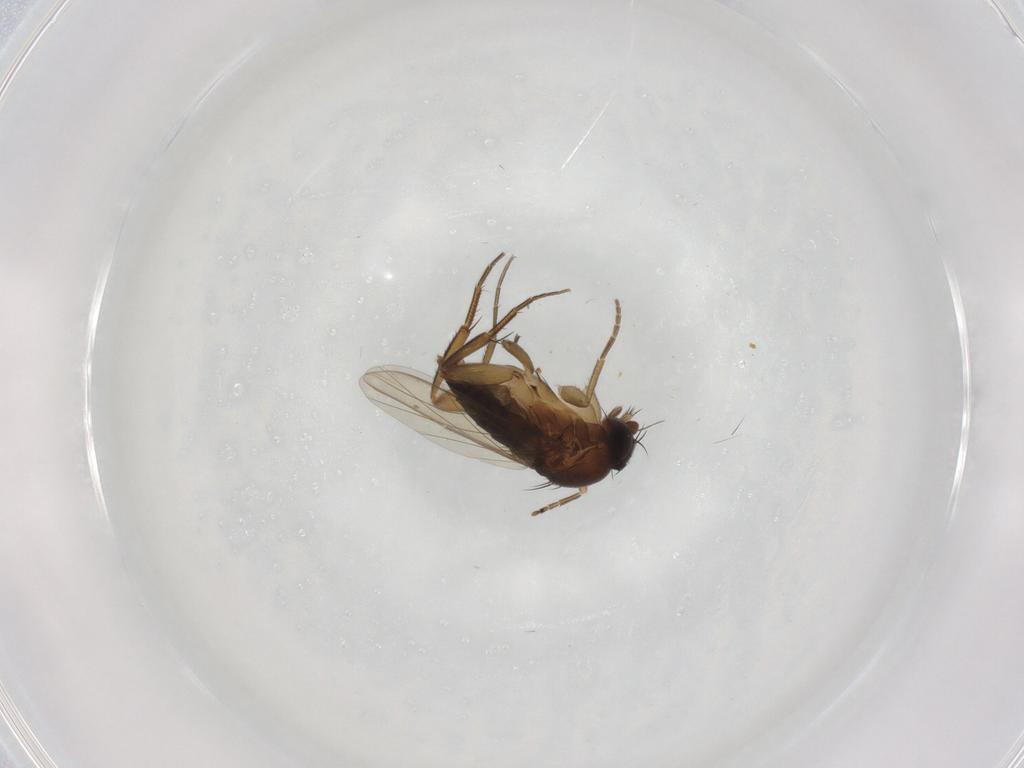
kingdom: Animalia
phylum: Arthropoda
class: Insecta
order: Diptera
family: Phoridae
